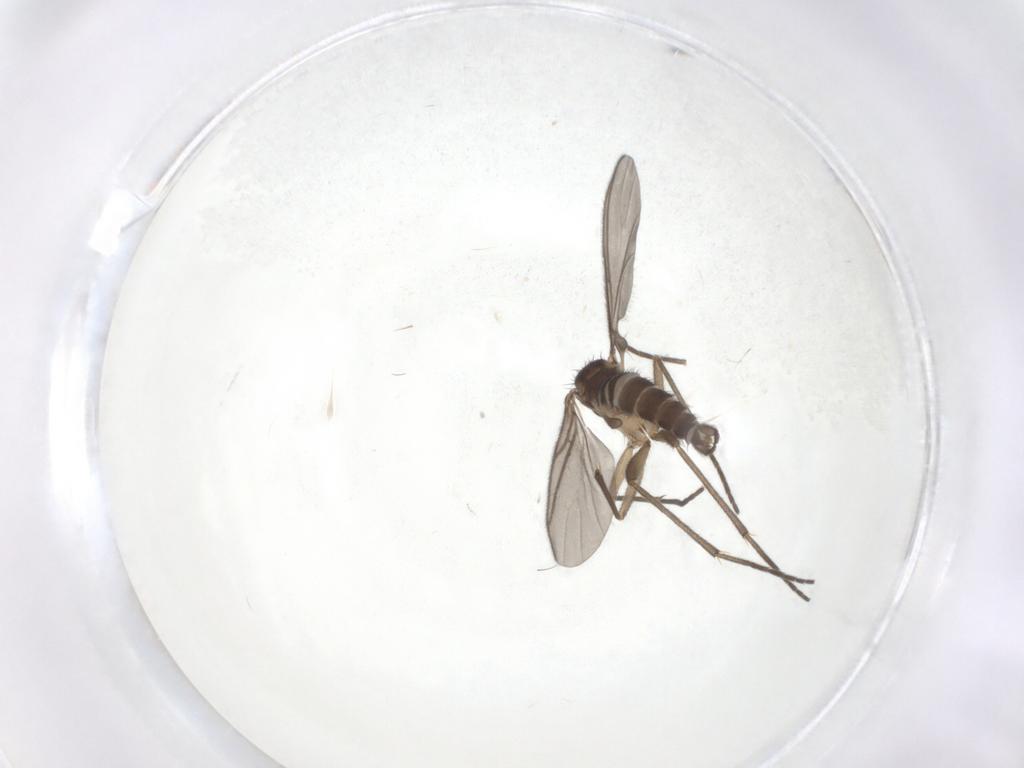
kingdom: Animalia
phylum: Arthropoda
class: Insecta
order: Diptera
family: Sciaridae
